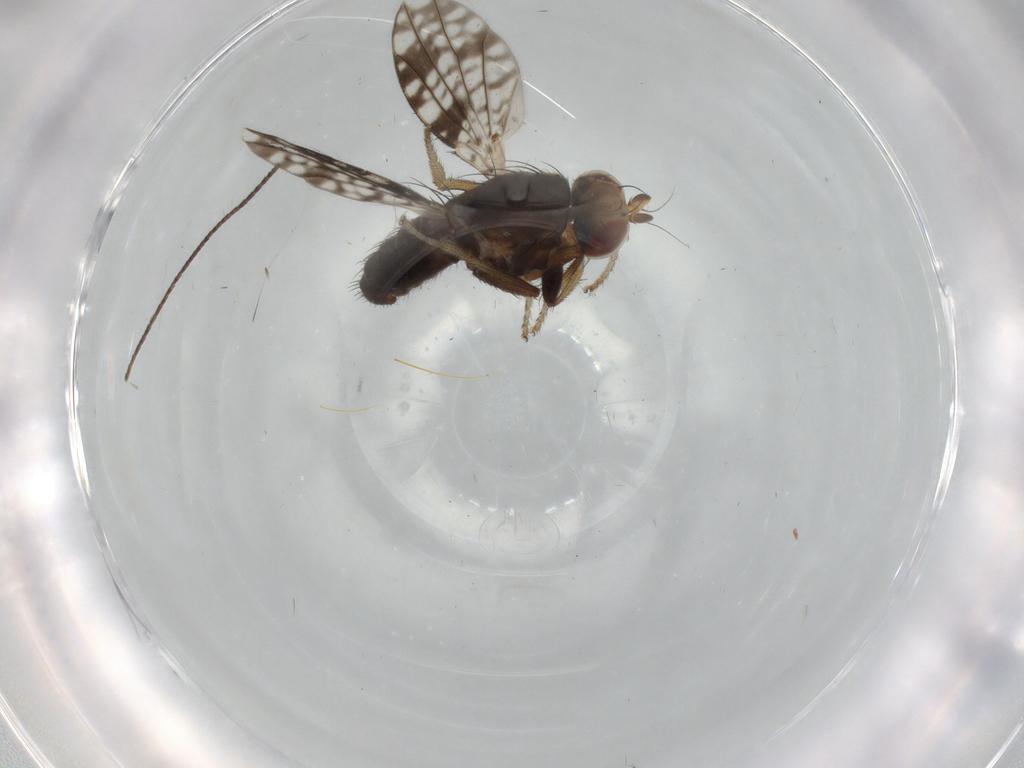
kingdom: Animalia
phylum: Arthropoda
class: Insecta
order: Diptera
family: Tephritidae
